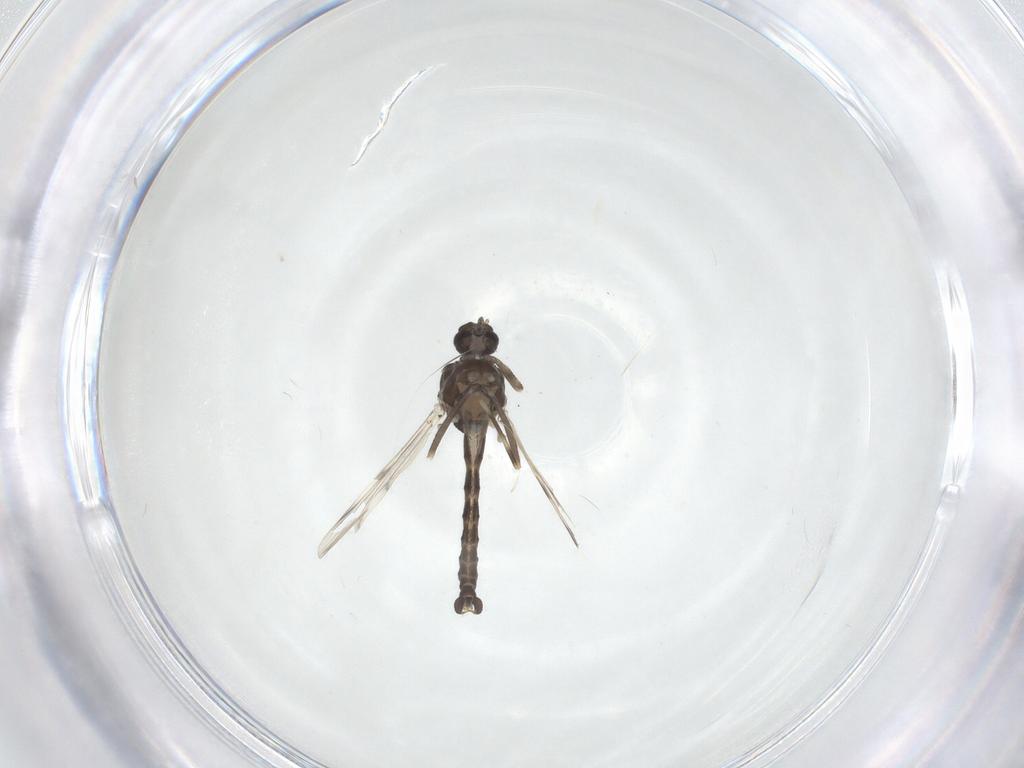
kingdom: Animalia
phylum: Arthropoda
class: Insecta
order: Diptera
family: Ceratopogonidae
